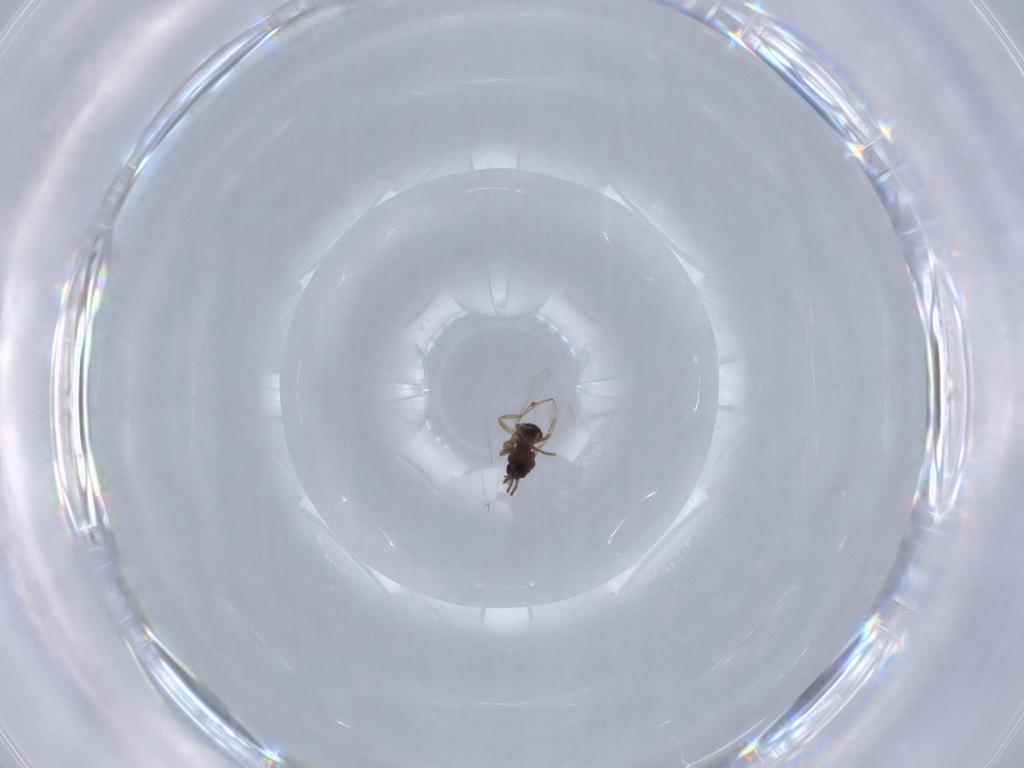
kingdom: Animalia
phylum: Arthropoda
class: Insecta
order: Diptera
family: Ceratopogonidae
